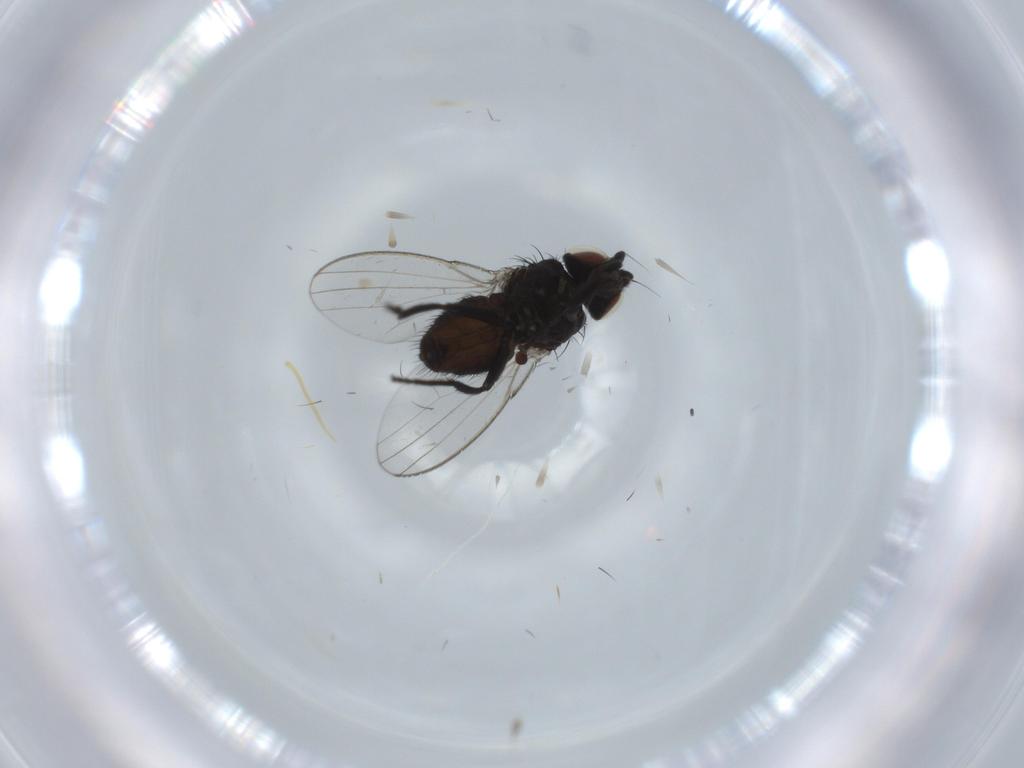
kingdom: Animalia
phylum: Arthropoda
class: Insecta
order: Diptera
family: Milichiidae
